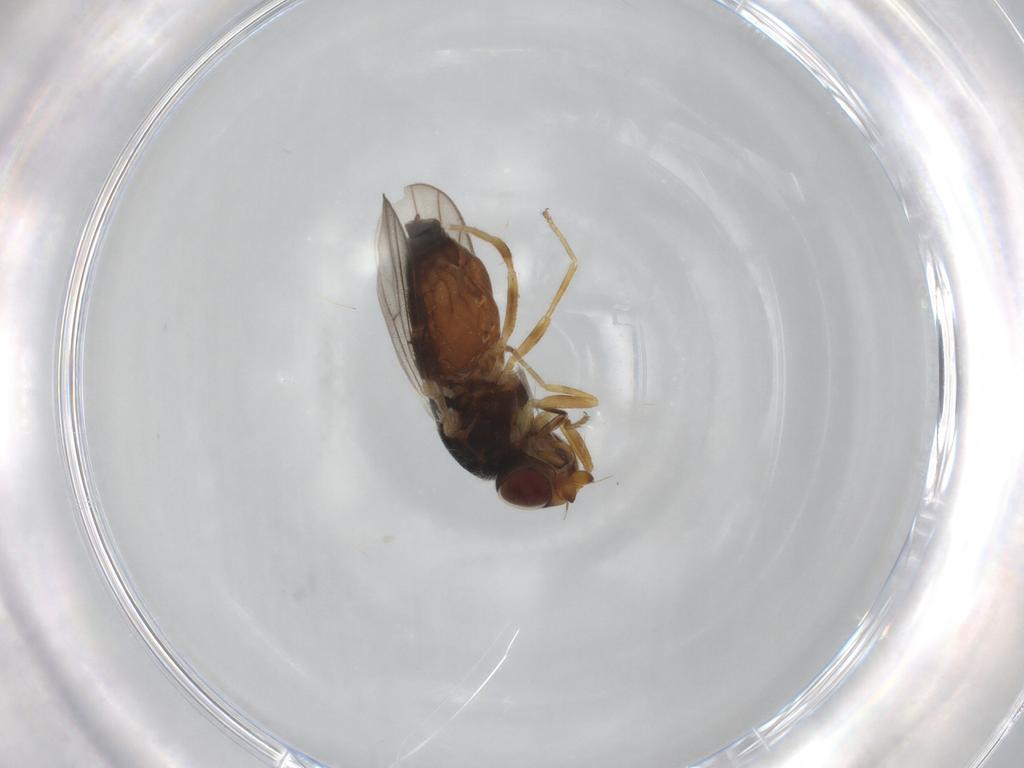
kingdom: Animalia
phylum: Arthropoda
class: Insecta
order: Diptera
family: Chloropidae
